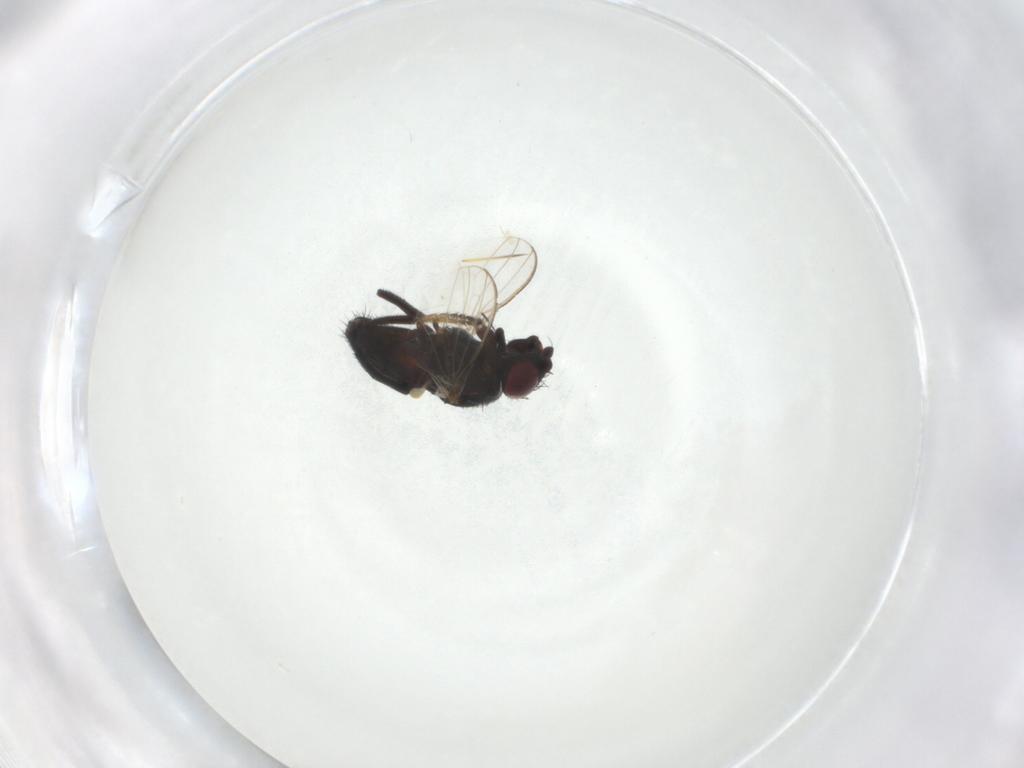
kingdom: Animalia
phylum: Arthropoda
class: Insecta
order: Diptera
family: Milichiidae
